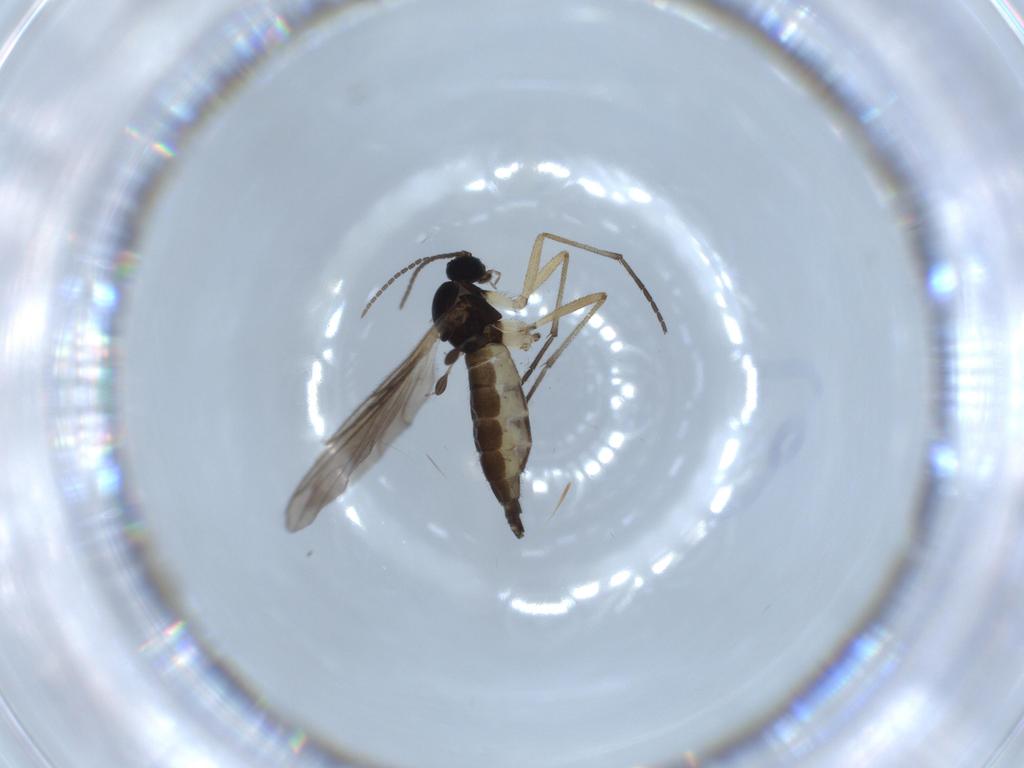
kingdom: Animalia
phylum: Arthropoda
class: Insecta
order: Diptera
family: Sciaridae
